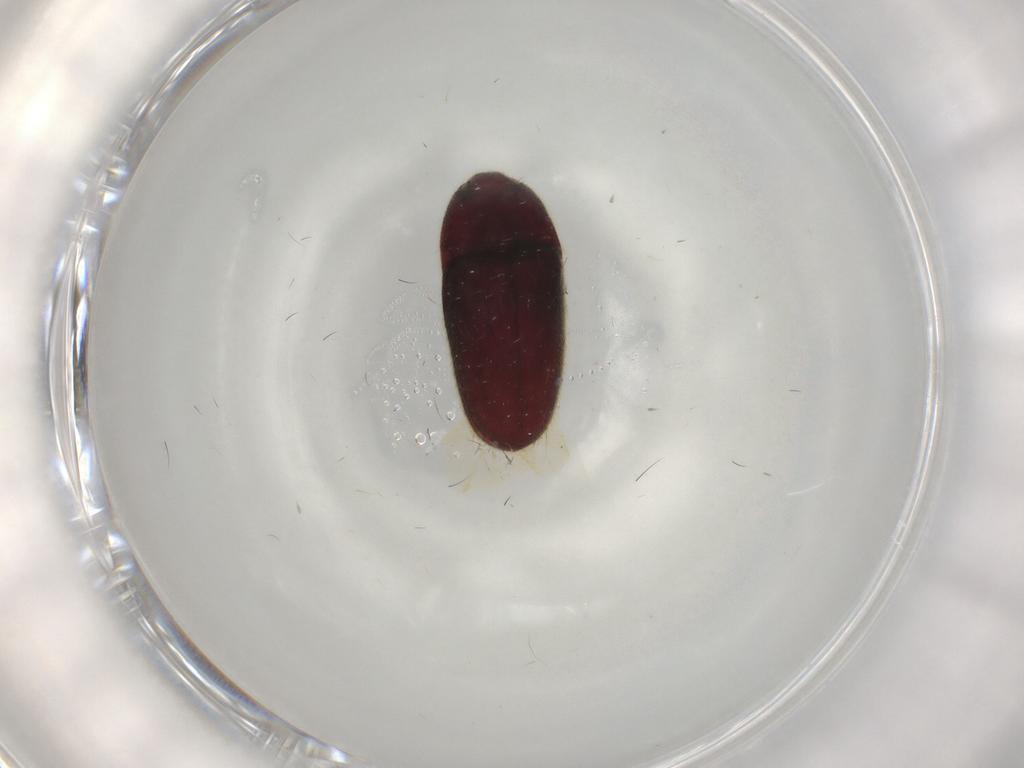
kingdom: Animalia
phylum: Arthropoda
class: Insecta
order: Coleoptera
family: Throscidae
